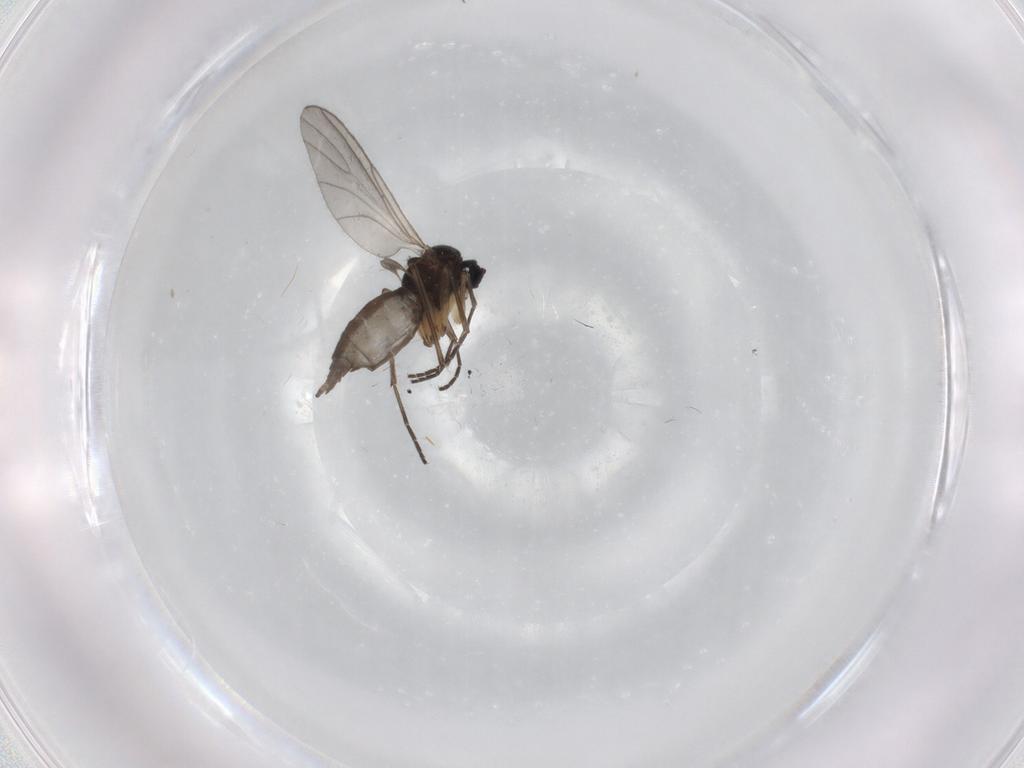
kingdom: Animalia
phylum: Arthropoda
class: Insecta
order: Diptera
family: Sciaridae
